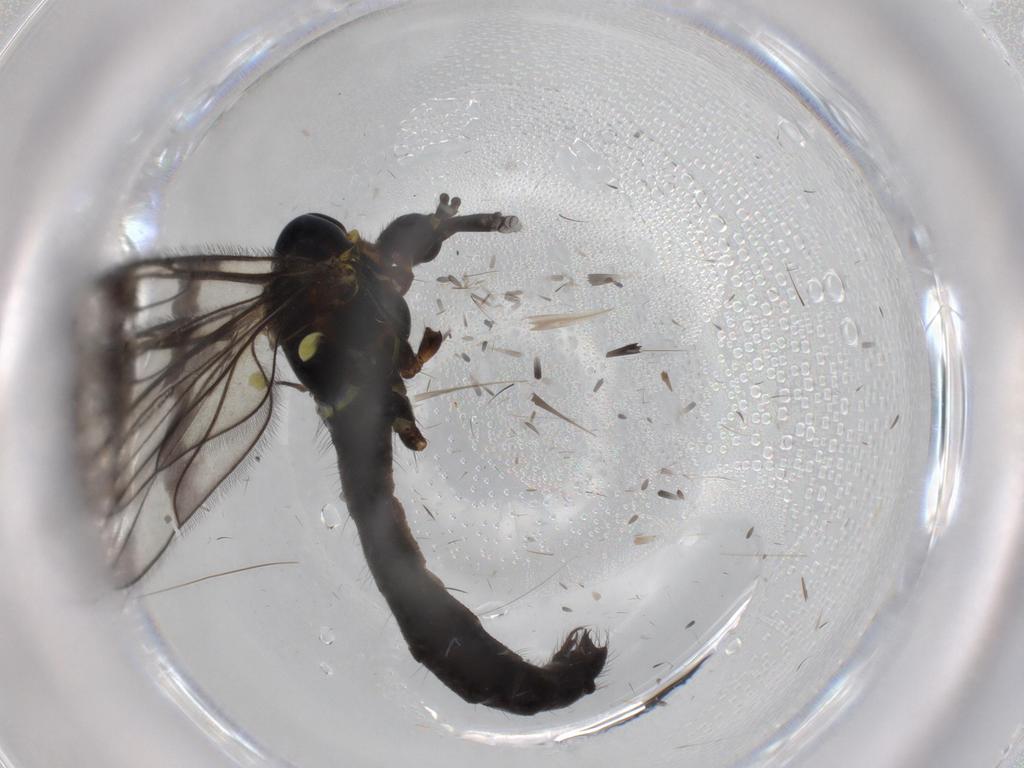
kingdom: Animalia
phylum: Arthropoda
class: Insecta
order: Diptera
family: Limoniidae
